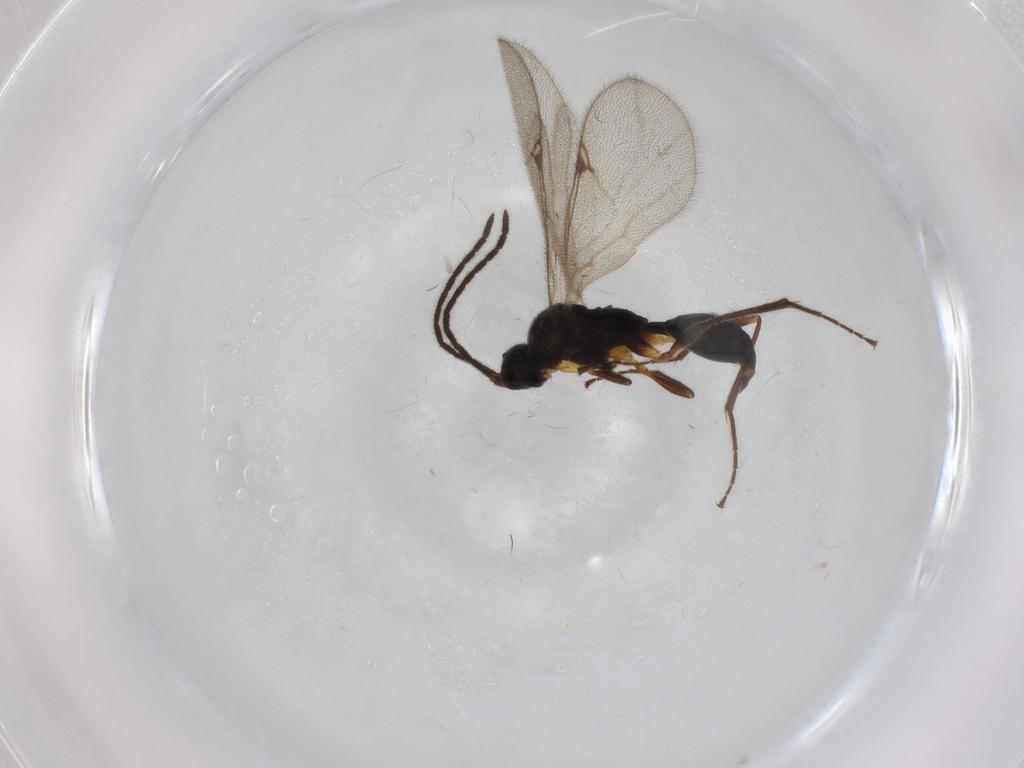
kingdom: Animalia
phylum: Arthropoda
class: Insecta
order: Hymenoptera
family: Proctotrupidae
